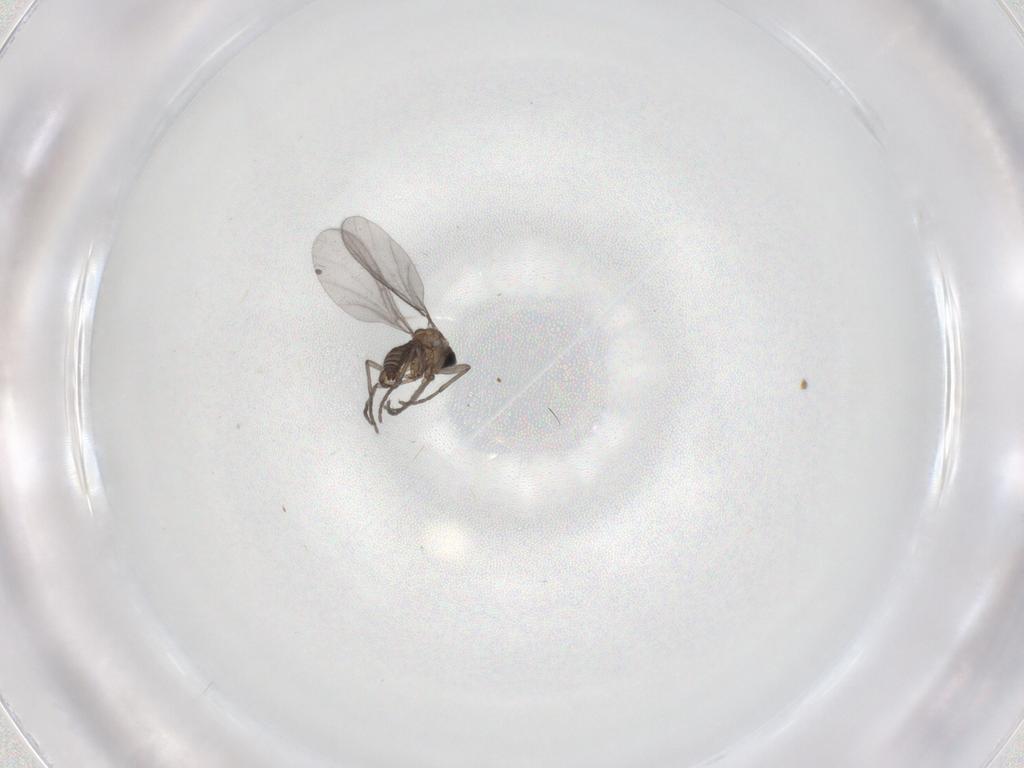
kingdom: Animalia
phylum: Arthropoda
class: Insecta
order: Diptera
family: Sciaridae
